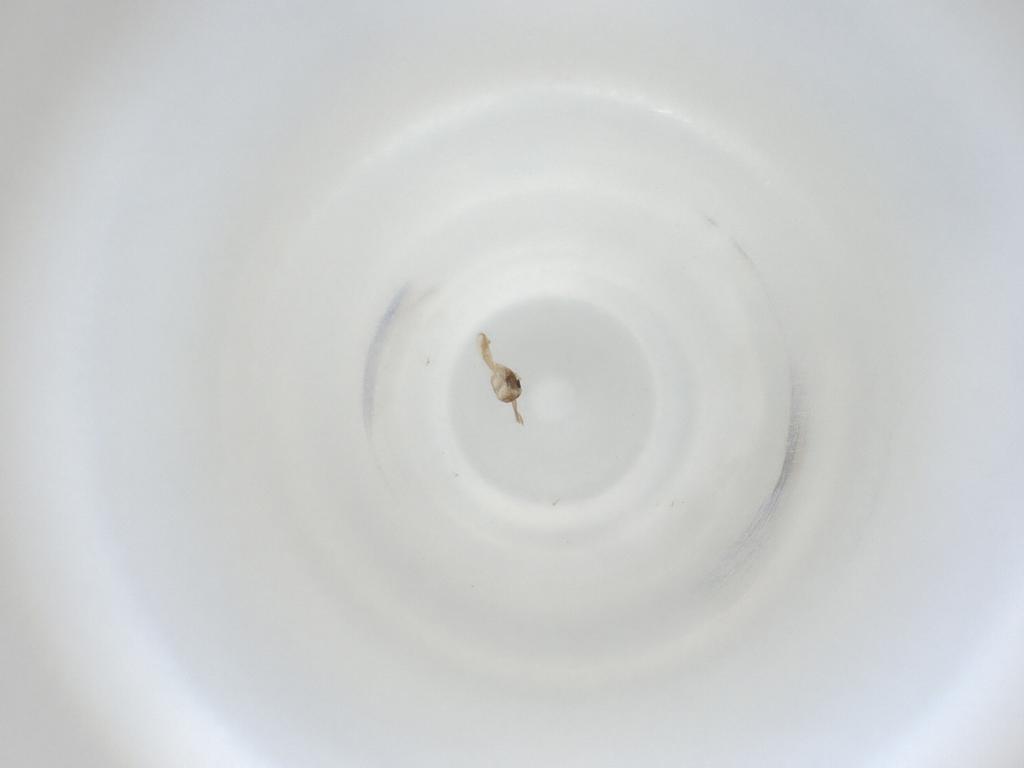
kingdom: Animalia
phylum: Arthropoda
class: Insecta
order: Diptera
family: Cecidomyiidae
